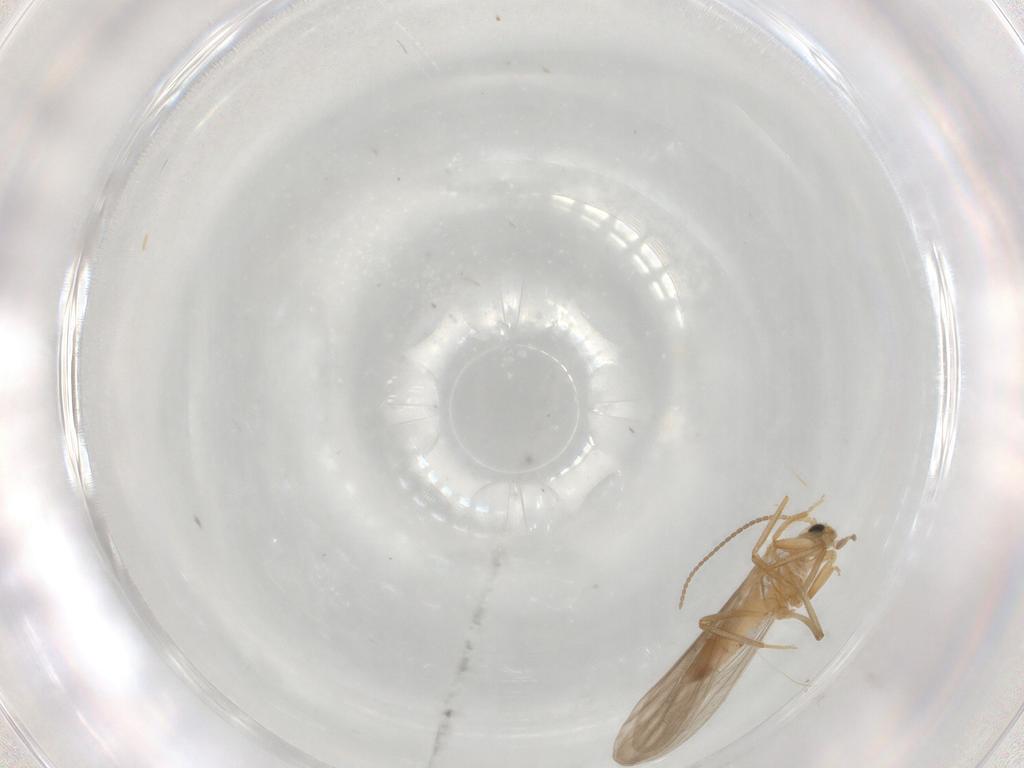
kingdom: Animalia
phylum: Arthropoda
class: Insecta
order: Neuroptera
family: Coniopterygidae
